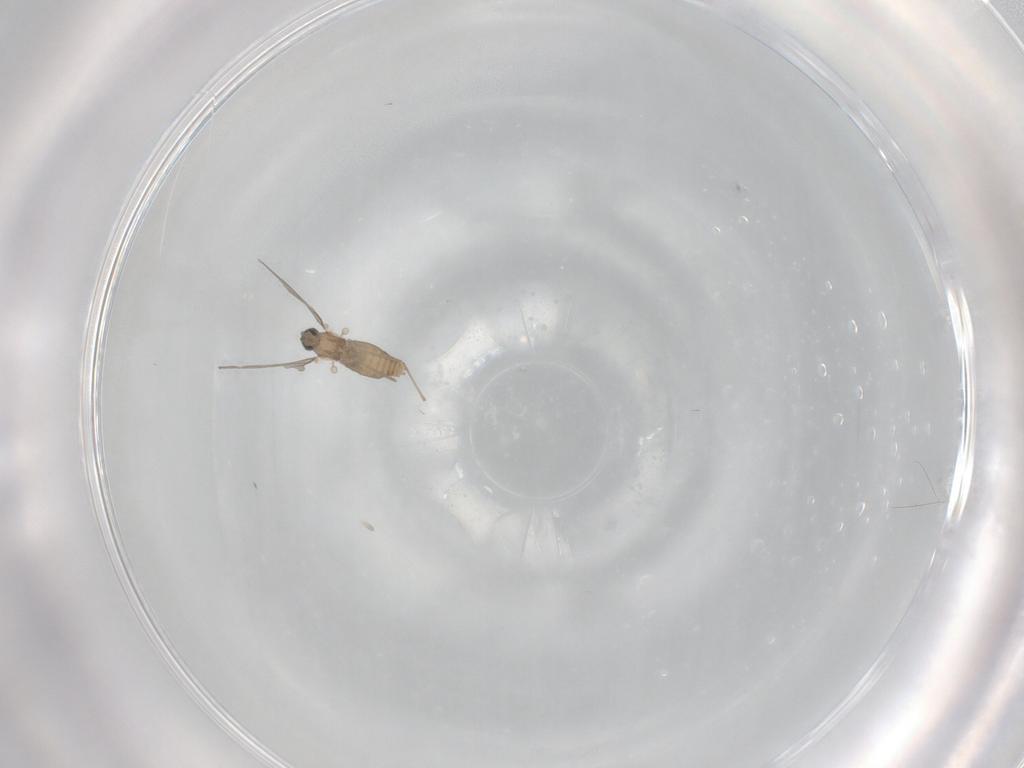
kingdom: Animalia
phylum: Arthropoda
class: Insecta
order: Diptera
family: Cecidomyiidae
